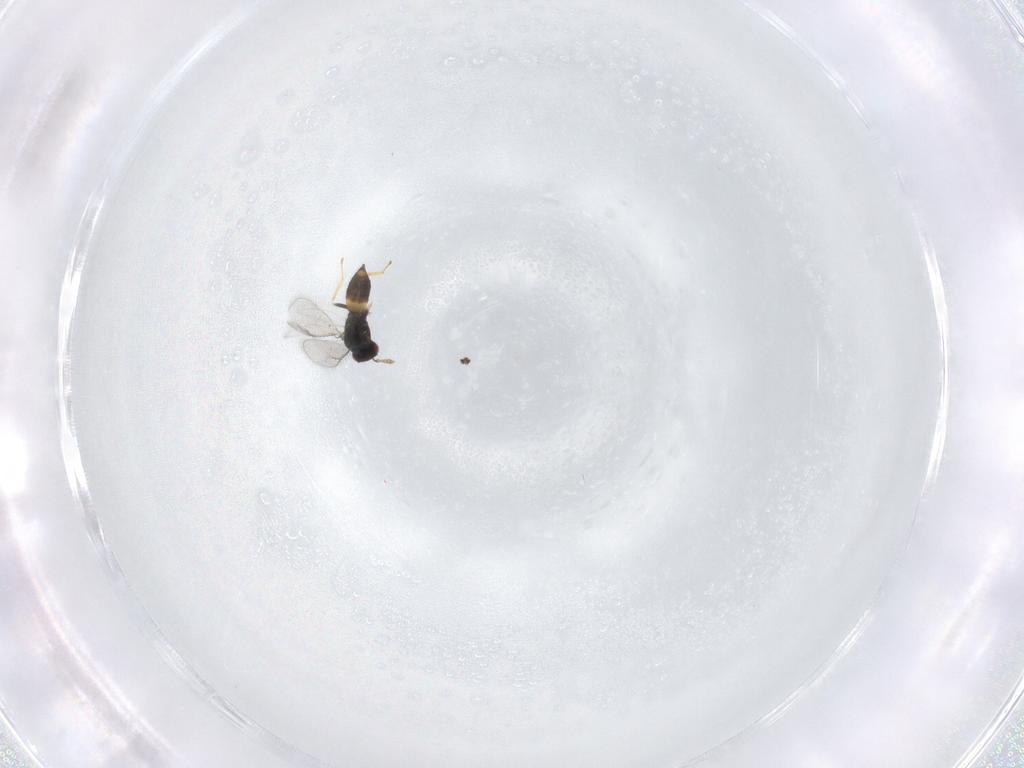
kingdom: Animalia
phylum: Arthropoda
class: Insecta
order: Hymenoptera
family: Eulophidae
